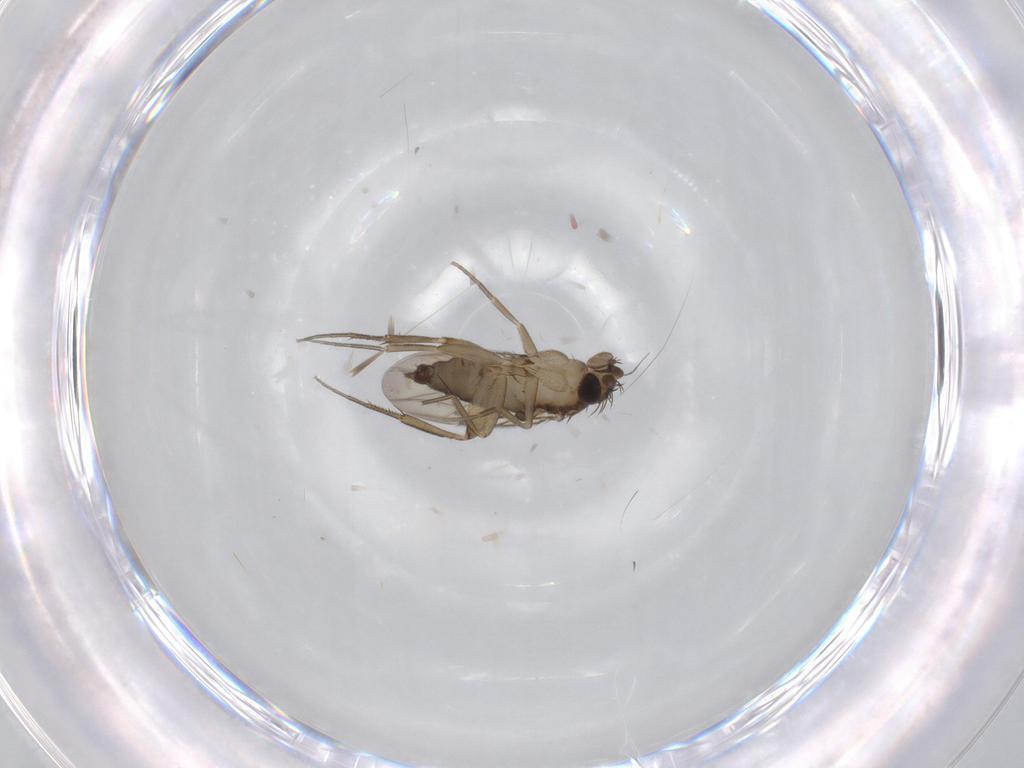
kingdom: Animalia
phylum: Arthropoda
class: Insecta
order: Diptera
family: Phoridae
